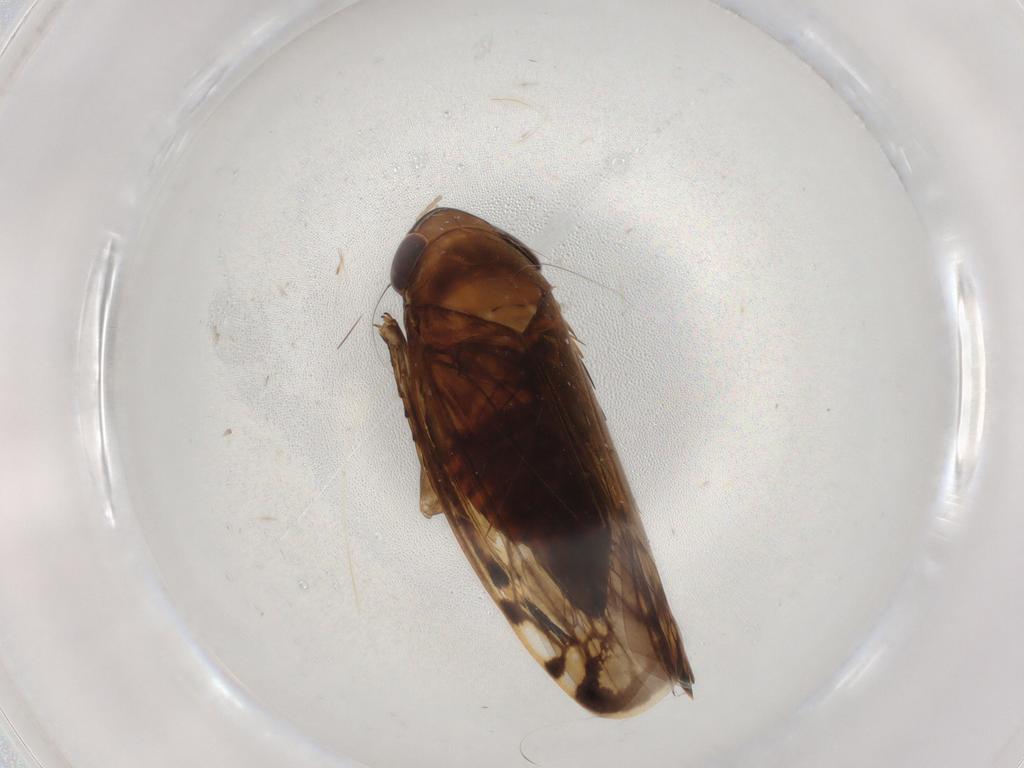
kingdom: Animalia
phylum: Arthropoda
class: Insecta
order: Hemiptera
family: Cicadellidae
